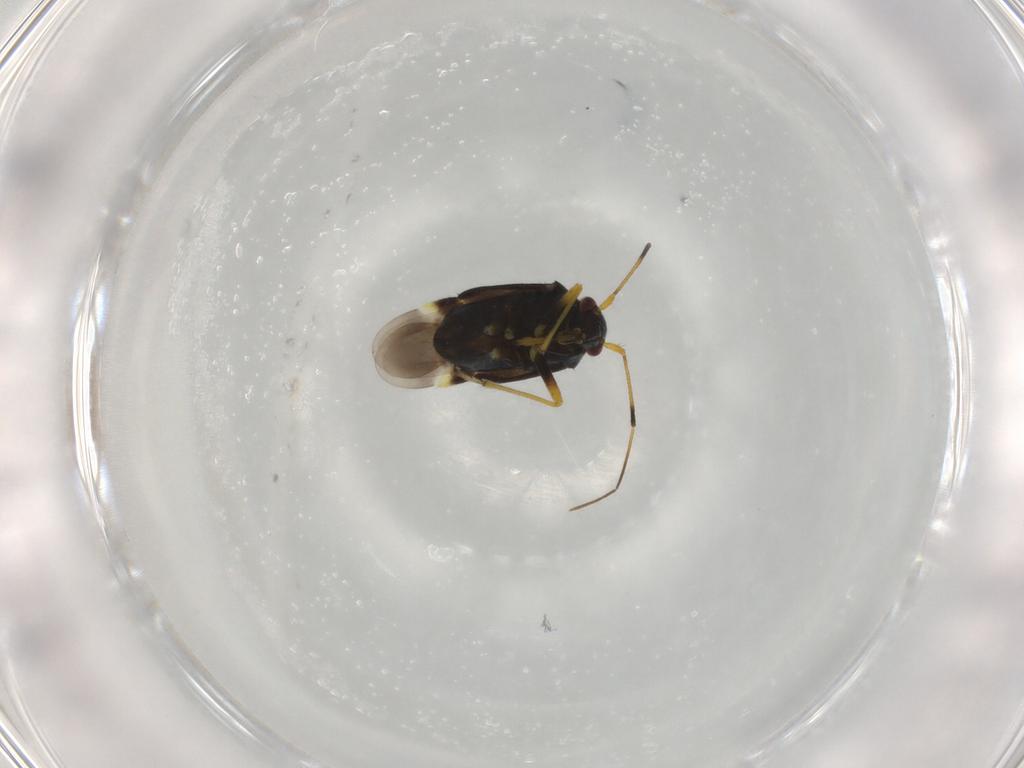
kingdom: Animalia
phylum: Arthropoda
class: Insecta
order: Hemiptera
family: Miridae
